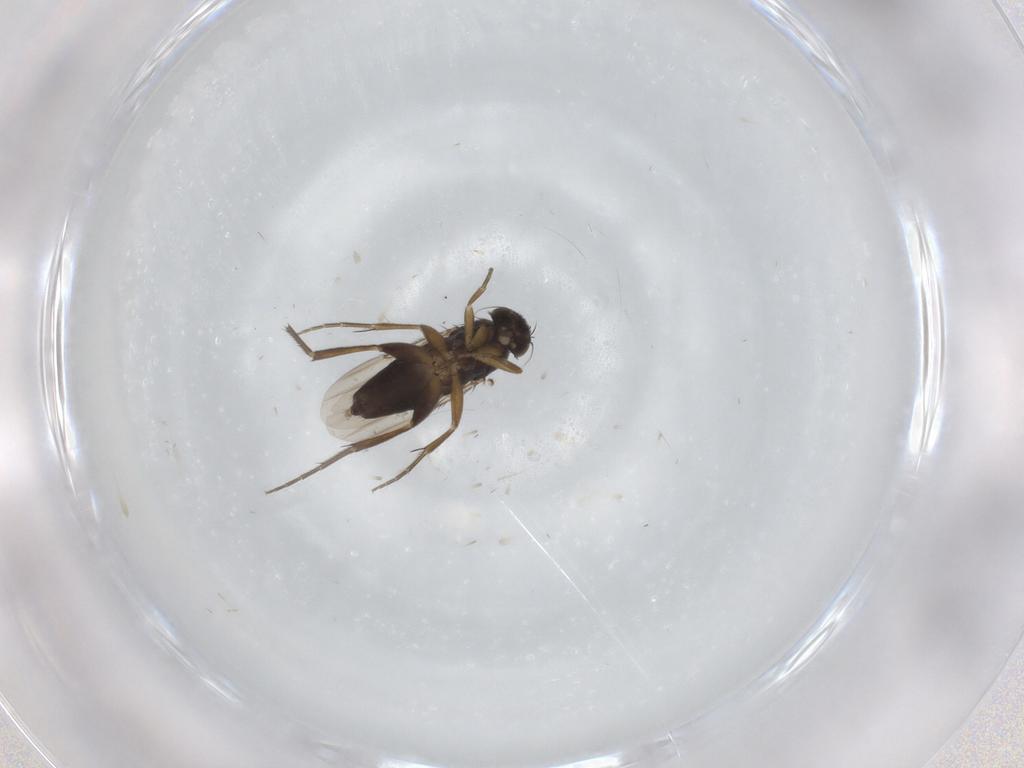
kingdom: Animalia
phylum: Arthropoda
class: Insecta
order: Diptera
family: Phoridae
